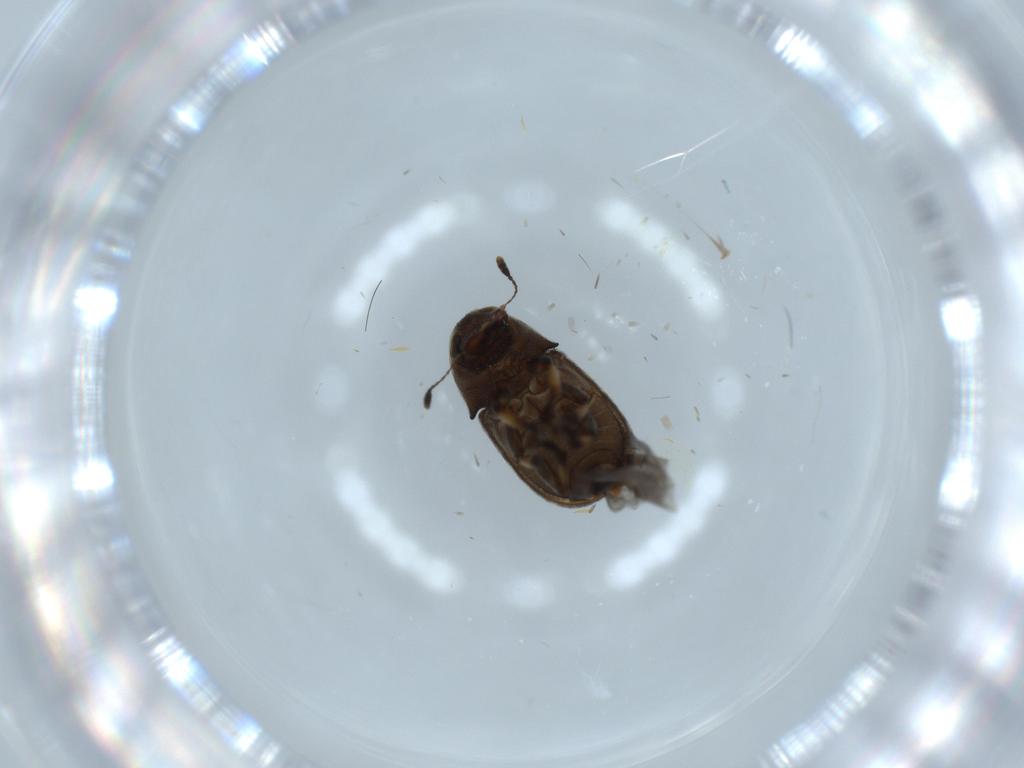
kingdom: Animalia
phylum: Arthropoda
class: Insecta
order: Coleoptera
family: Anthribidae
